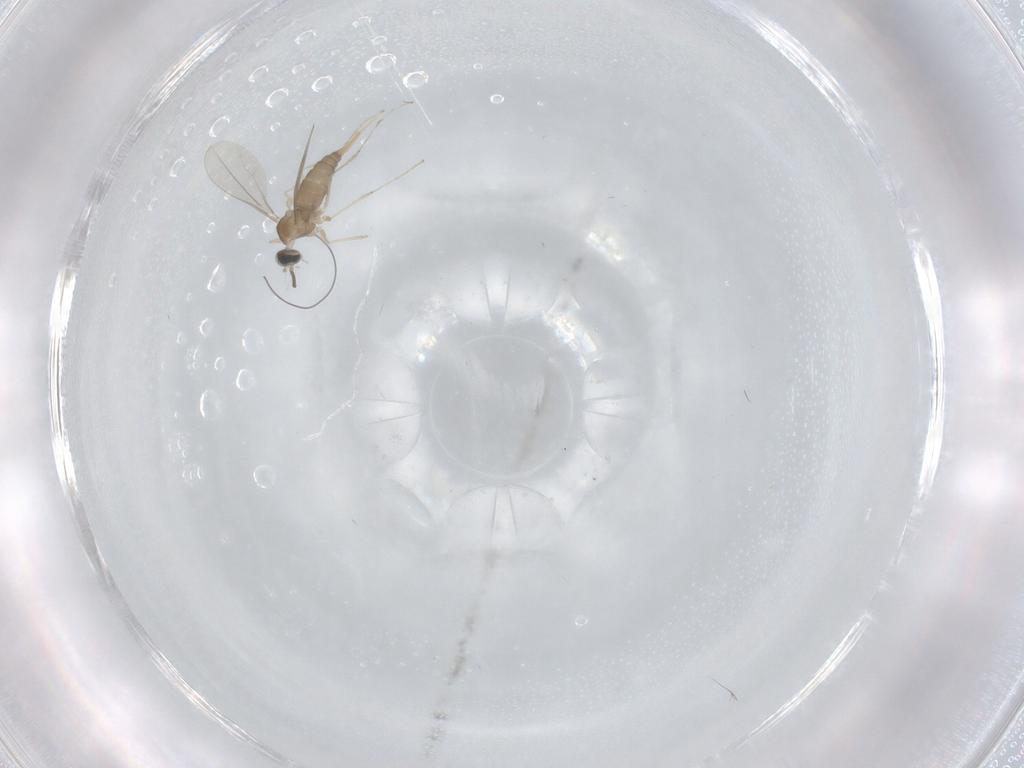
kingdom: Animalia
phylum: Arthropoda
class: Insecta
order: Diptera
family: Cecidomyiidae
